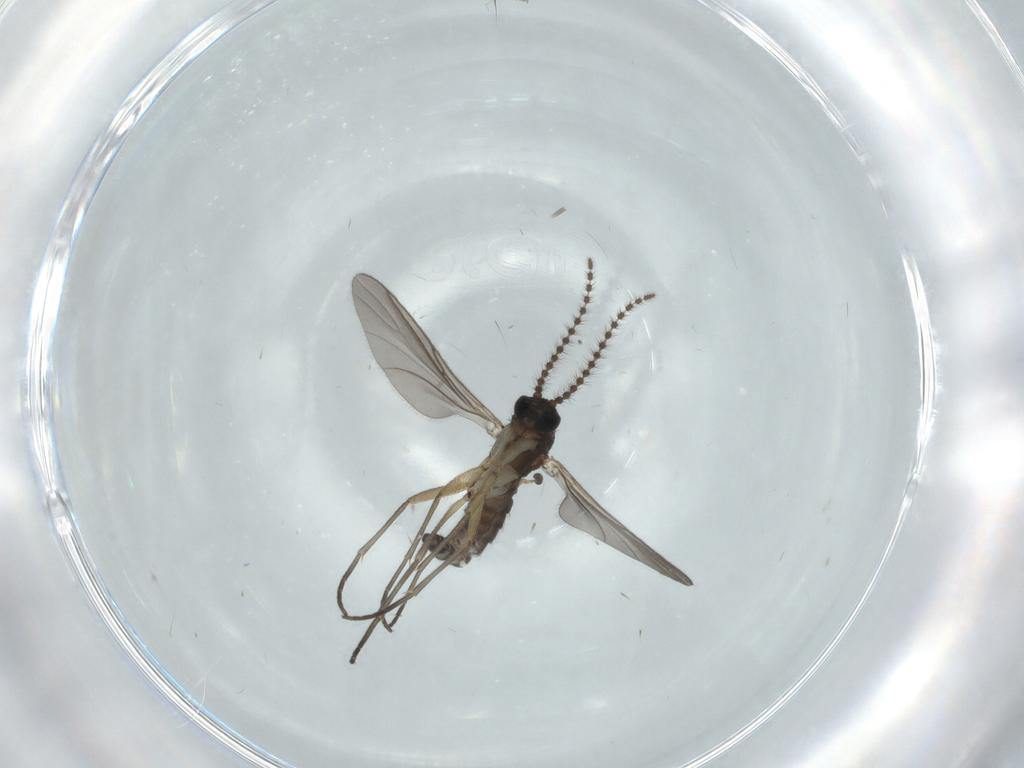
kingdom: Animalia
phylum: Arthropoda
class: Insecta
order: Diptera
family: Sciaridae
